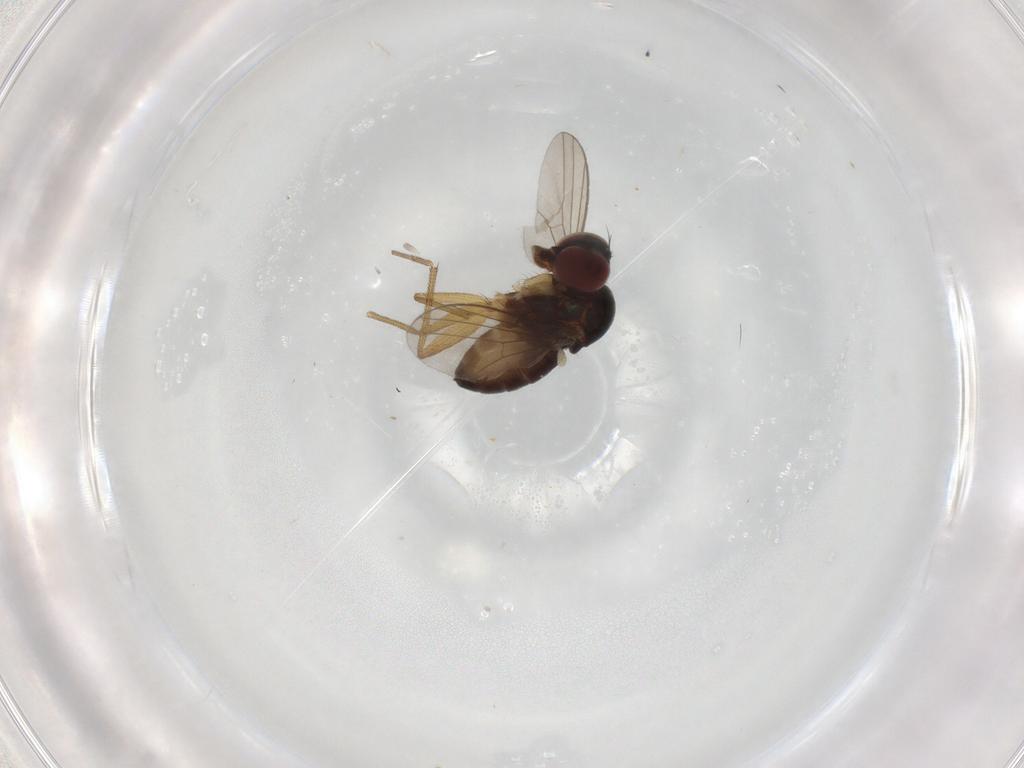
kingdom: Animalia
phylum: Arthropoda
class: Insecta
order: Diptera
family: Dolichopodidae
